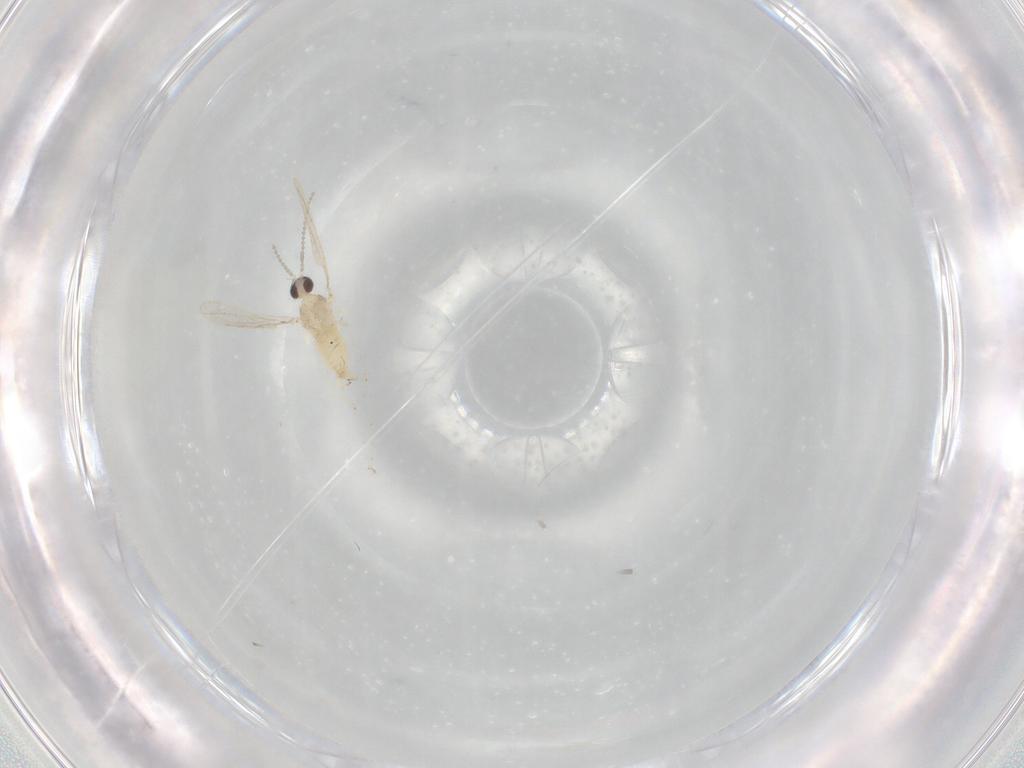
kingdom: Animalia
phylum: Arthropoda
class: Insecta
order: Diptera
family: Cecidomyiidae
